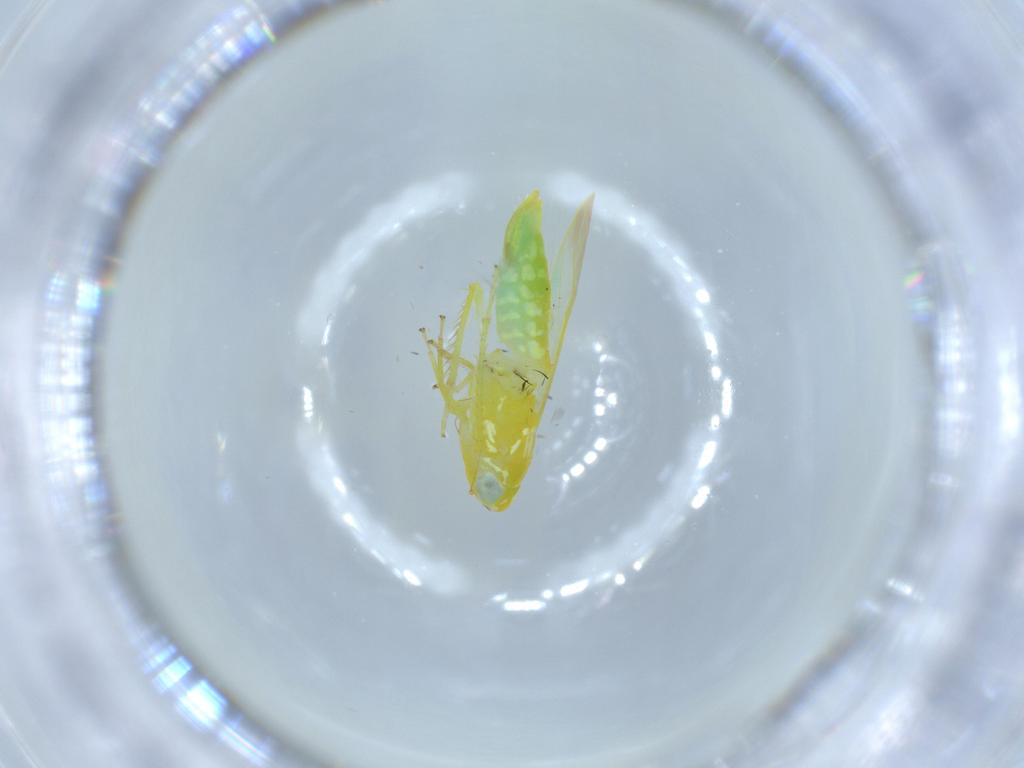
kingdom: Animalia
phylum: Arthropoda
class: Insecta
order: Hemiptera
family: Cicadellidae
